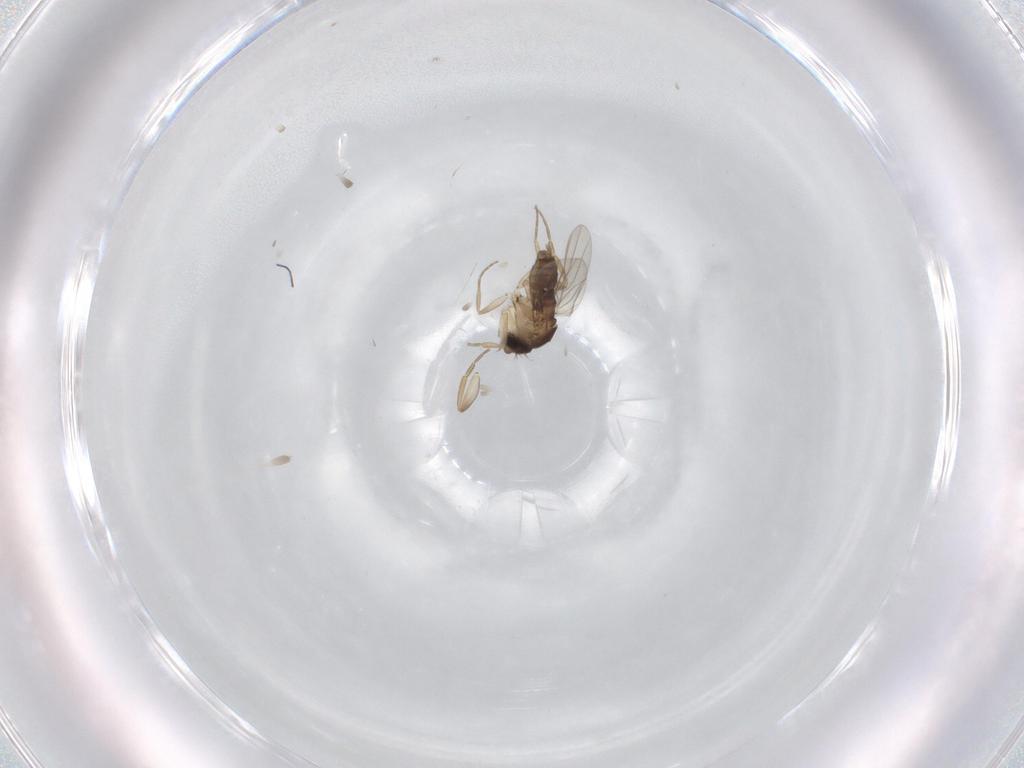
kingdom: Animalia
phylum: Arthropoda
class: Insecta
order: Diptera
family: Phoridae
